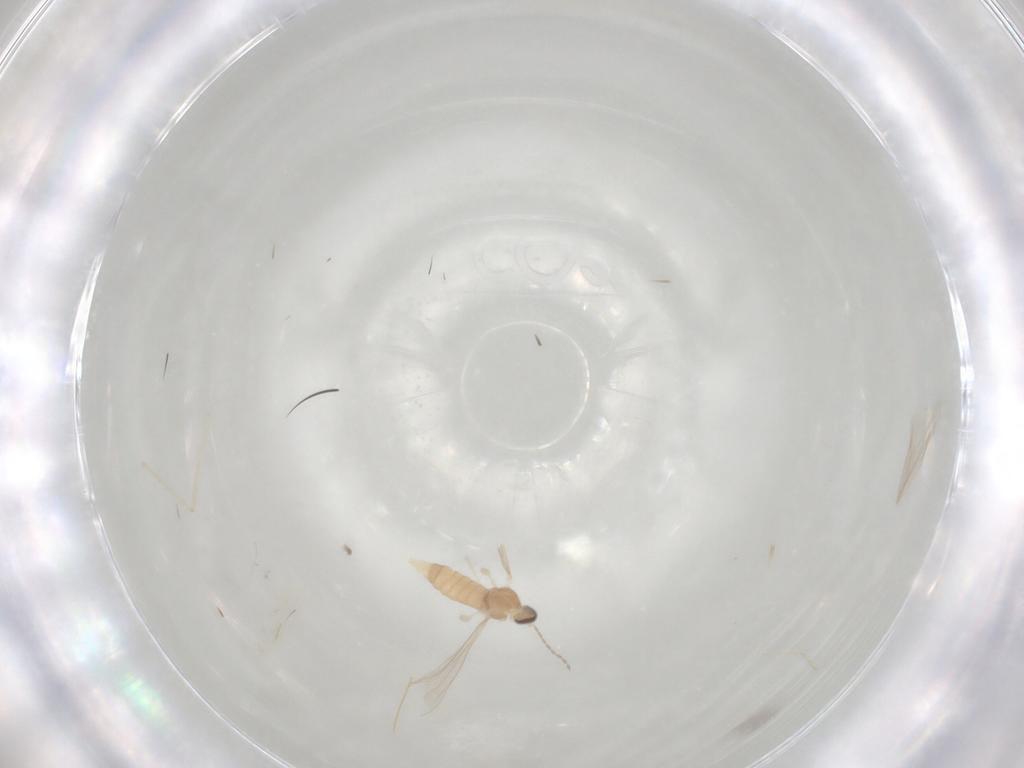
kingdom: Animalia
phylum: Arthropoda
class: Insecta
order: Diptera
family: Cecidomyiidae
